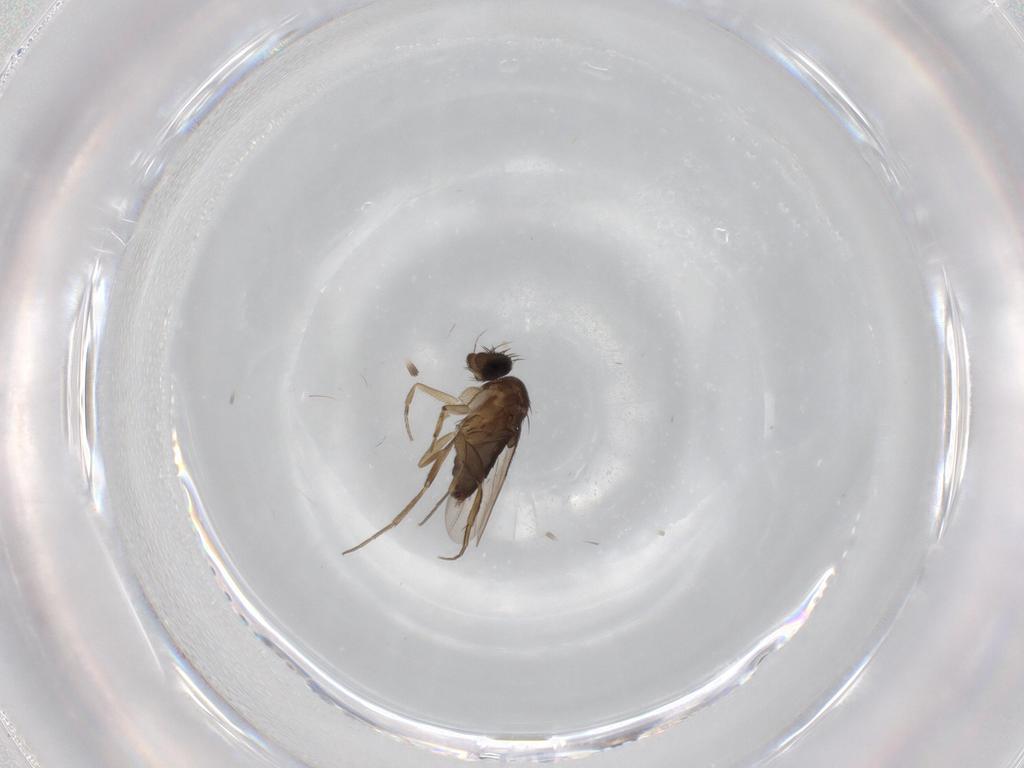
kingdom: Animalia
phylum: Arthropoda
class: Insecta
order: Diptera
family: Phoridae
